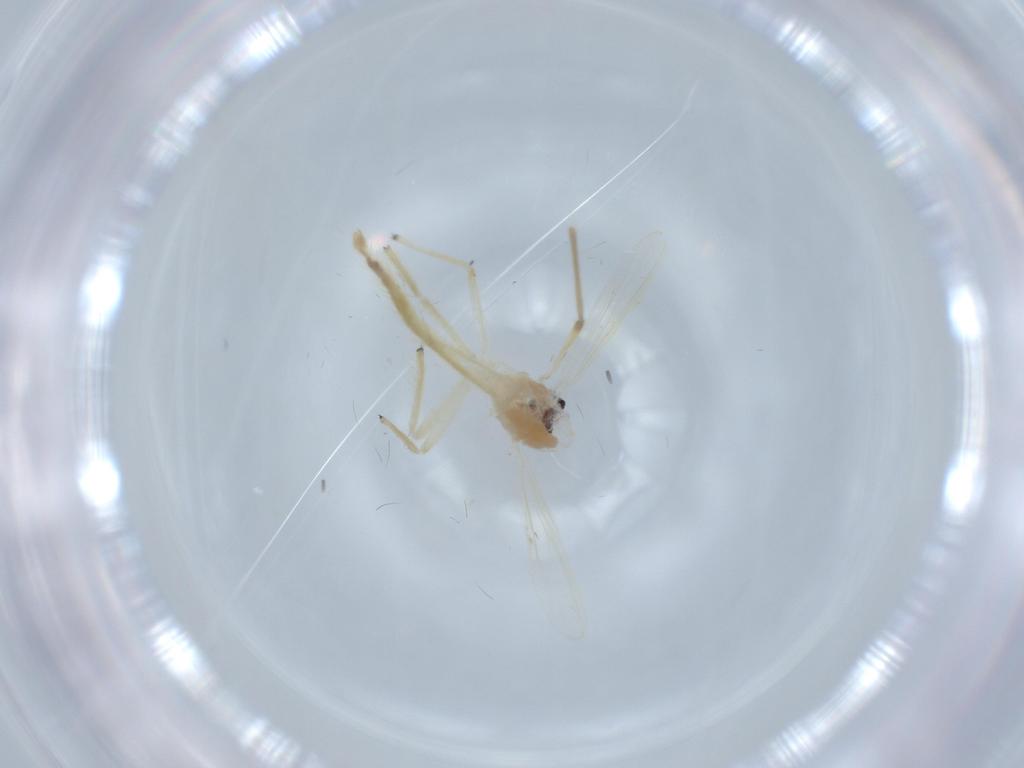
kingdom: Animalia
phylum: Arthropoda
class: Insecta
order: Diptera
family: Chironomidae
